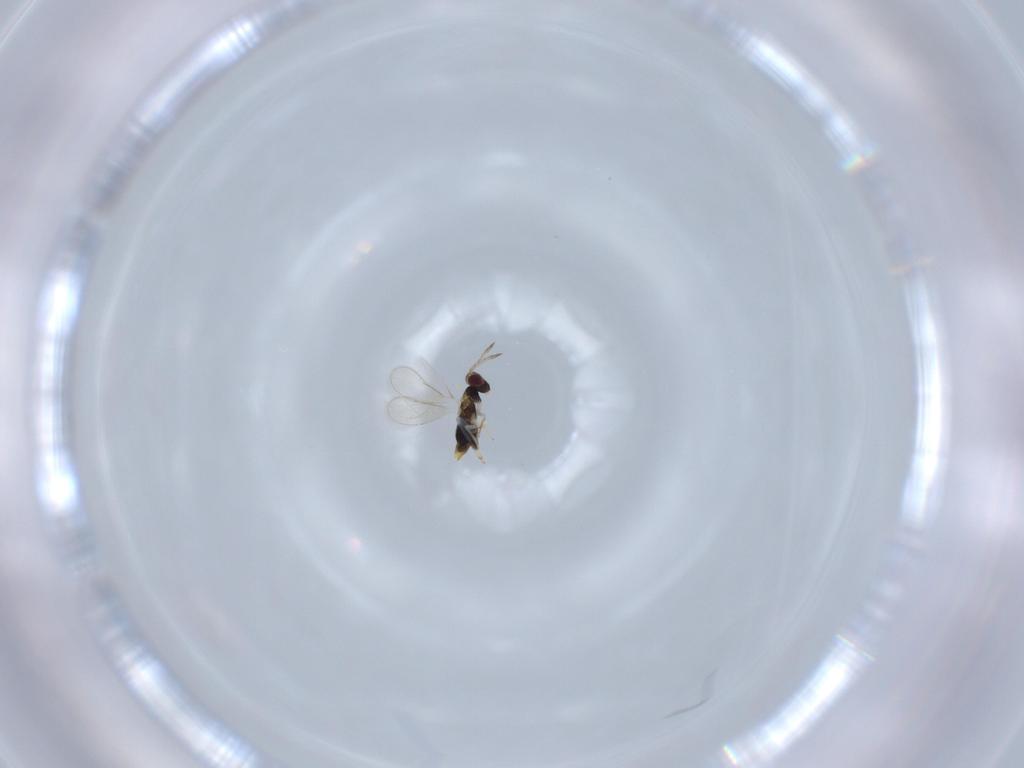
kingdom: Animalia
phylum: Arthropoda
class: Insecta
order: Hymenoptera
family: Aphelinidae
